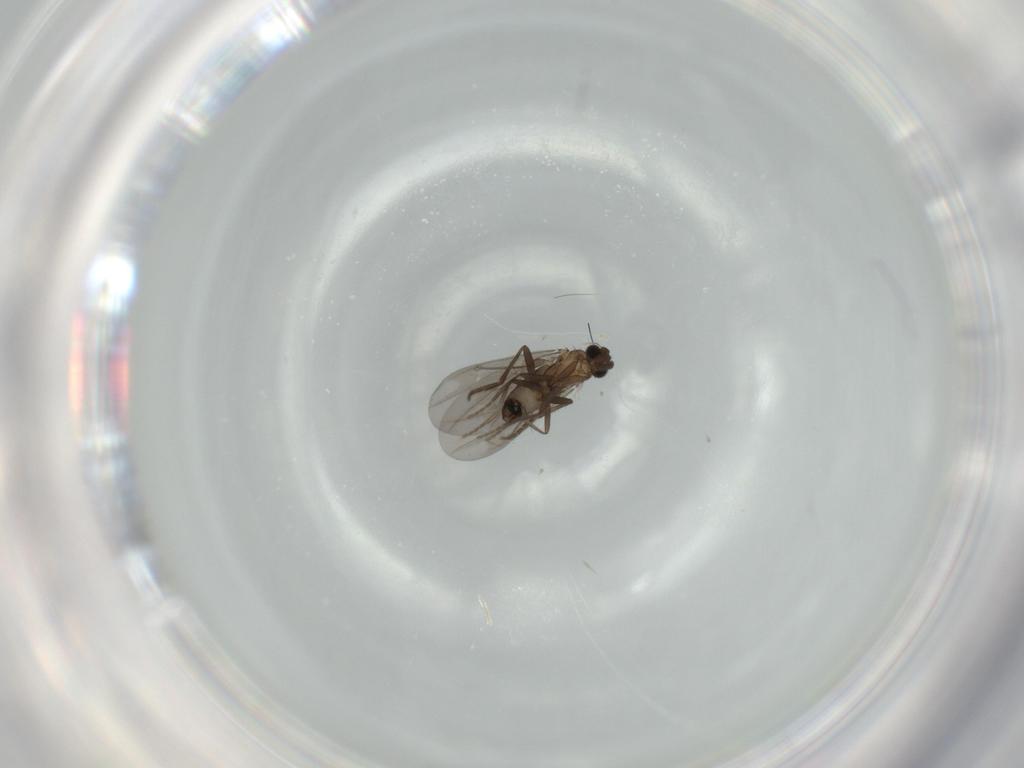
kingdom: Animalia
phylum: Arthropoda
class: Insecta
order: Diptera
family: Phoridae
